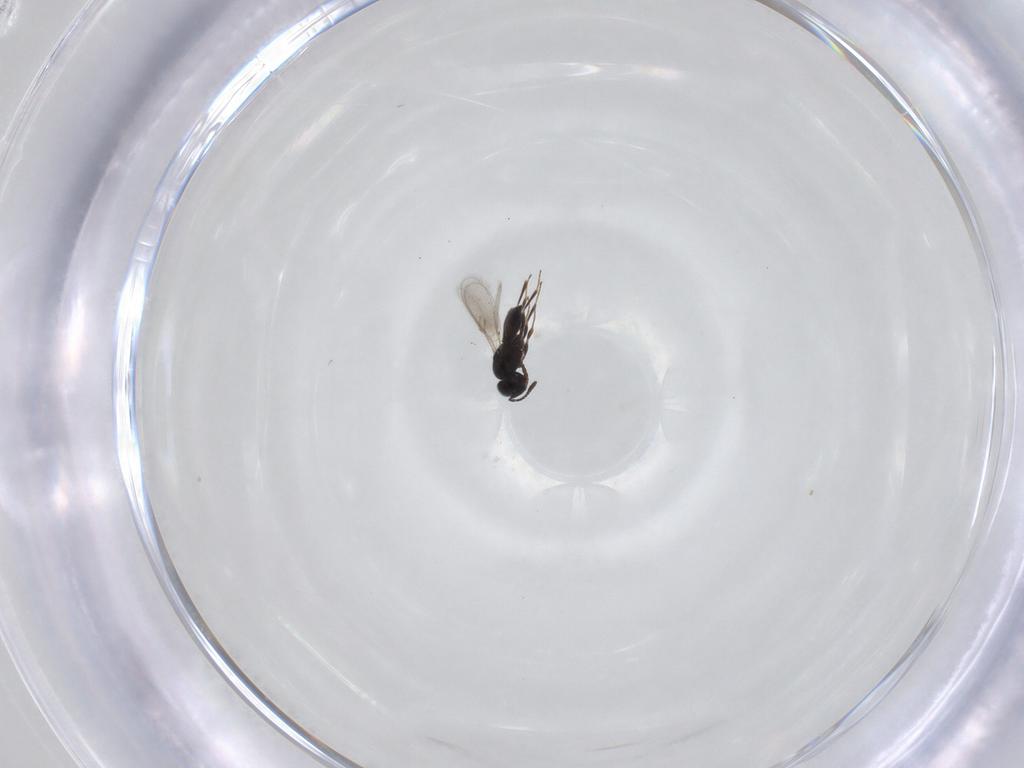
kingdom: Animalia
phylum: Arthropoda
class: Insecta
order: Hymenoptera
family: Scelionidae
